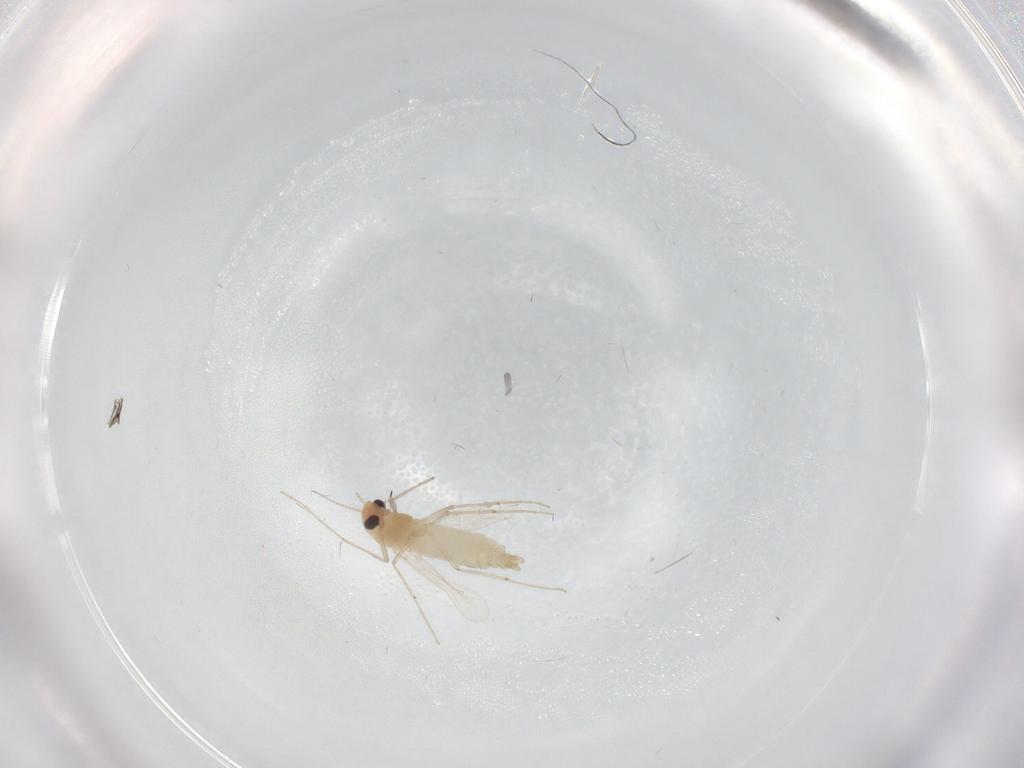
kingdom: Animalia
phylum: Arthropoda
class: Insecta
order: Diptera
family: Chironomidae
